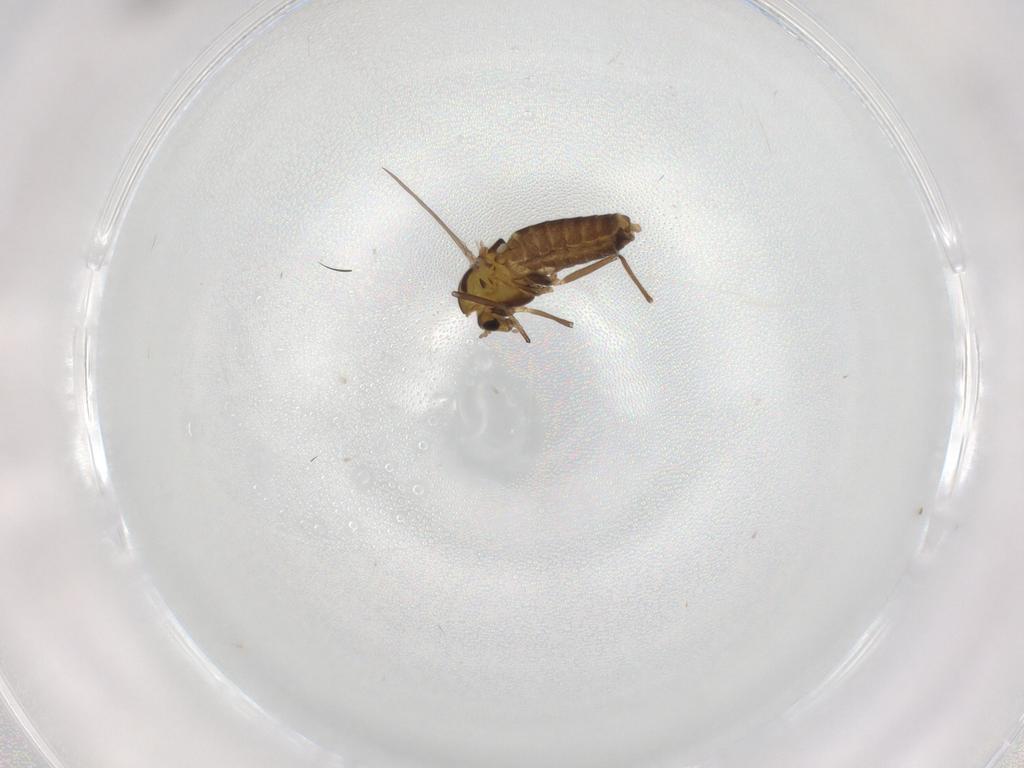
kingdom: Animalia
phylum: Arthropoda
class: Insecta
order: Diptera
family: Chironomidae
